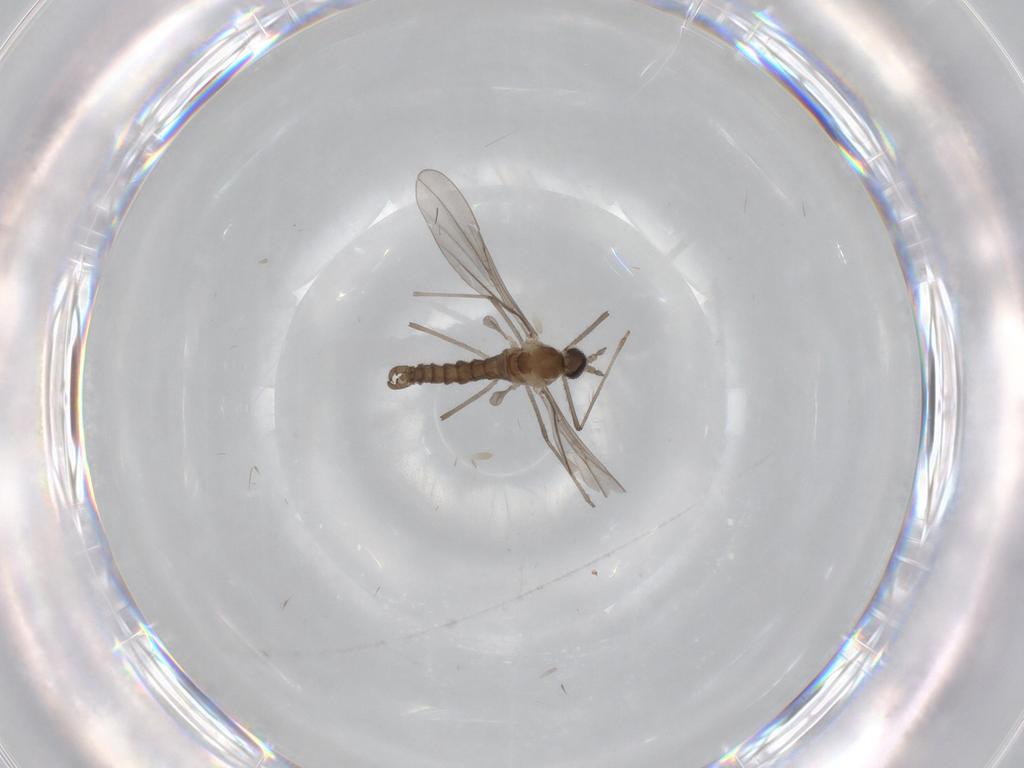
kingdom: Animalia
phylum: Arthropoda
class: Insecta
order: Diptera
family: Cecidomyiidae
